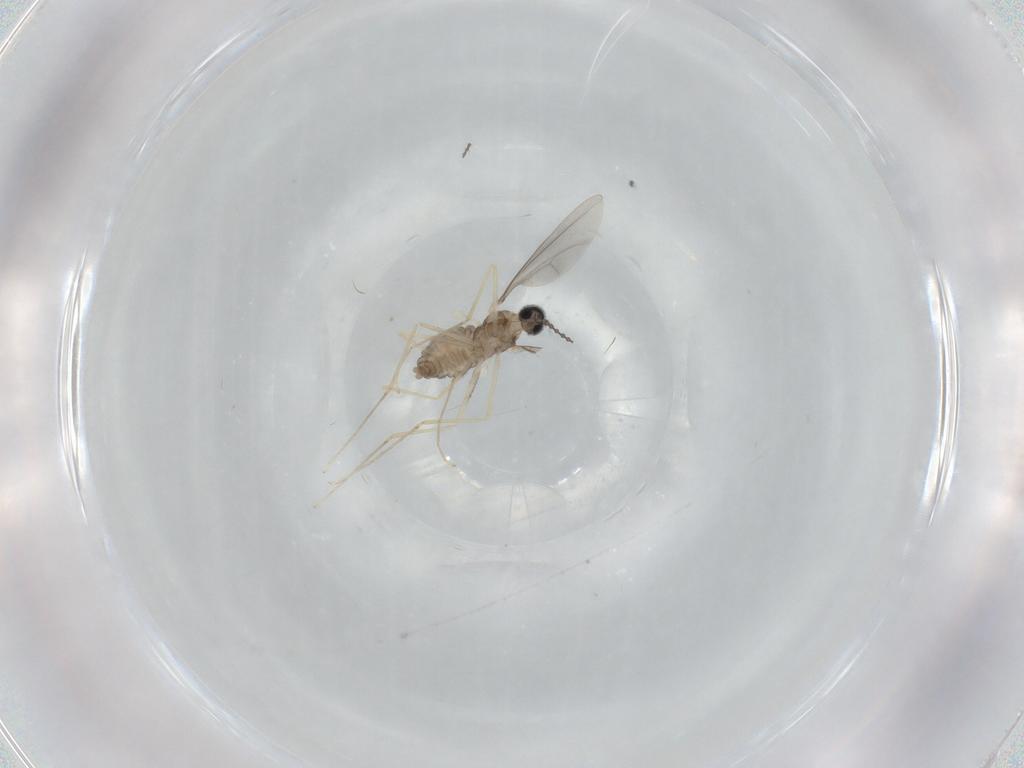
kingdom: Animalia
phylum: Arthropoda
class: Insecta
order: Diptera
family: Cecidomyiidae
